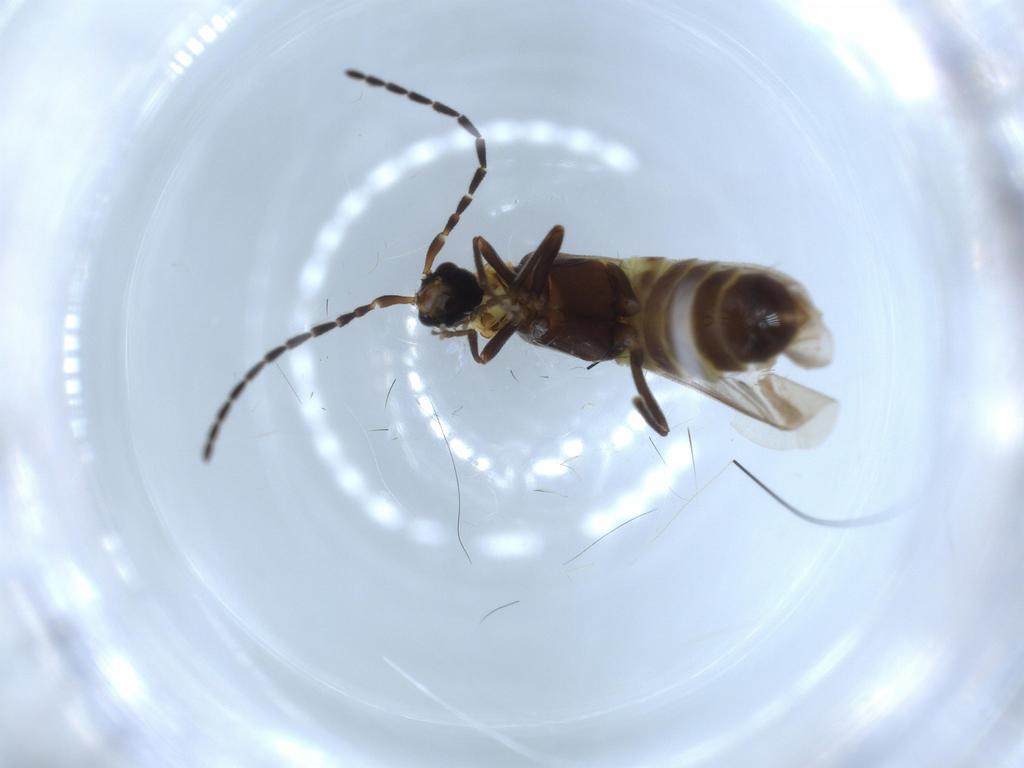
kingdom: Animalia
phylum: Arthropoda
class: Insecta
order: Coleoptera
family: Cantharidae
